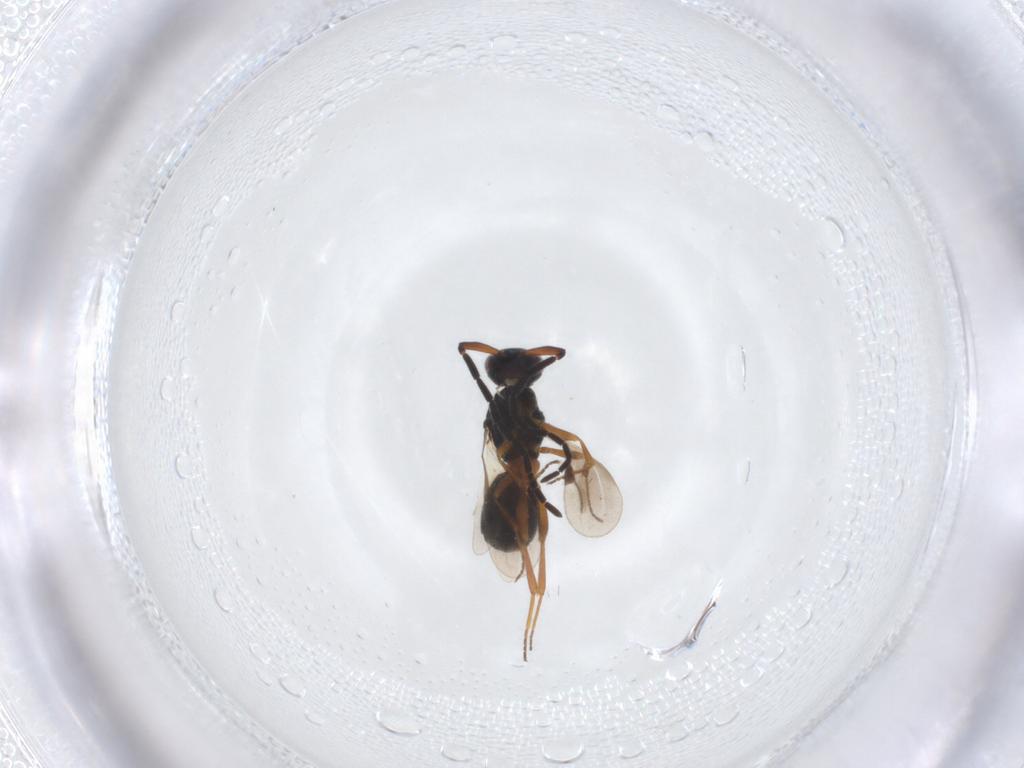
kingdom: Animalia
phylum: Arthropoda
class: Insecta
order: Hymenoptera
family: Megaspilidae
